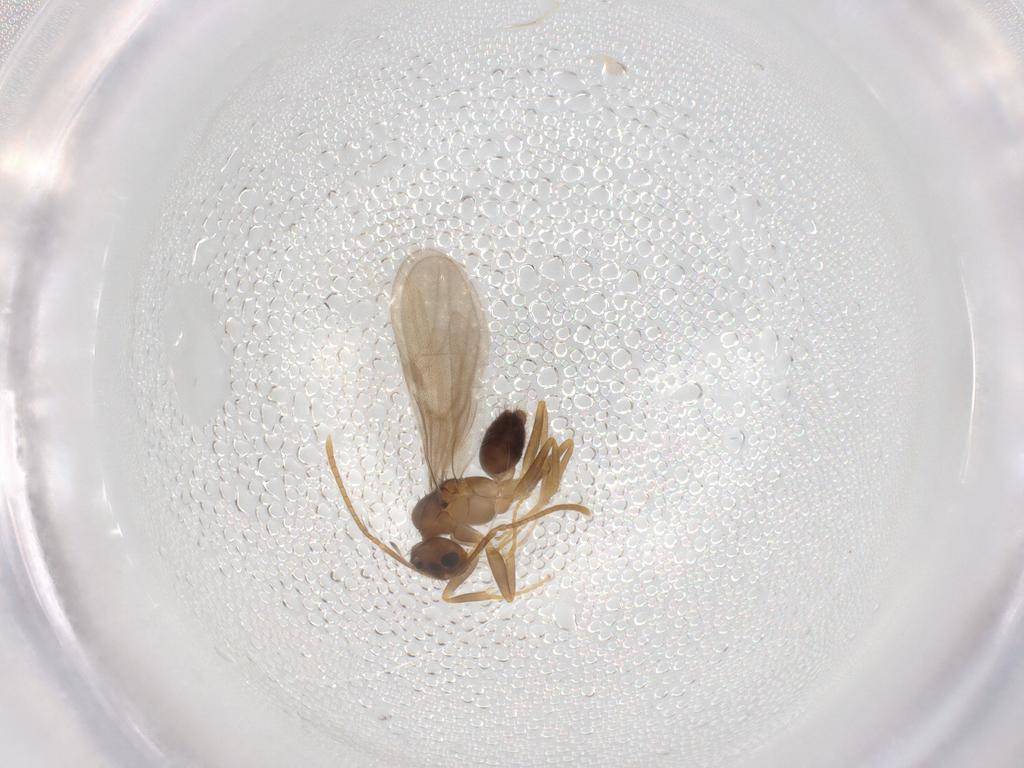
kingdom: Animalia
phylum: Arthropoda
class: Insecta
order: Hymenoptera
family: Formicidae
